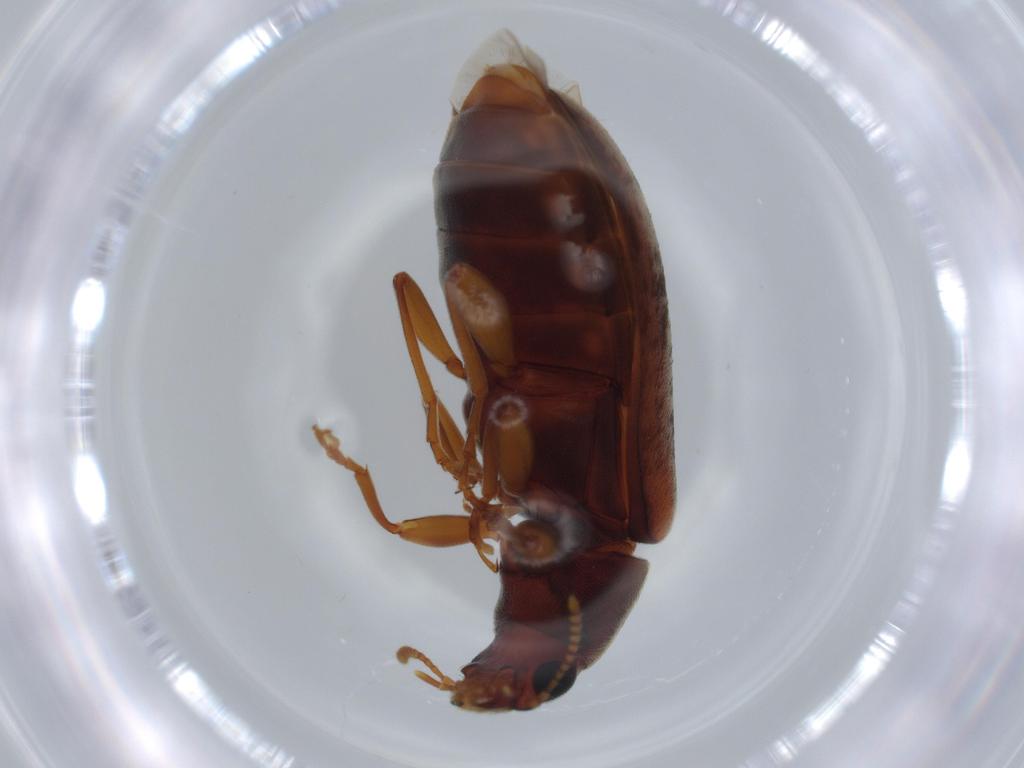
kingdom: Animalia
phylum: Arthropoda
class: Insecta
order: Coleoptera
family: Mycteridae
